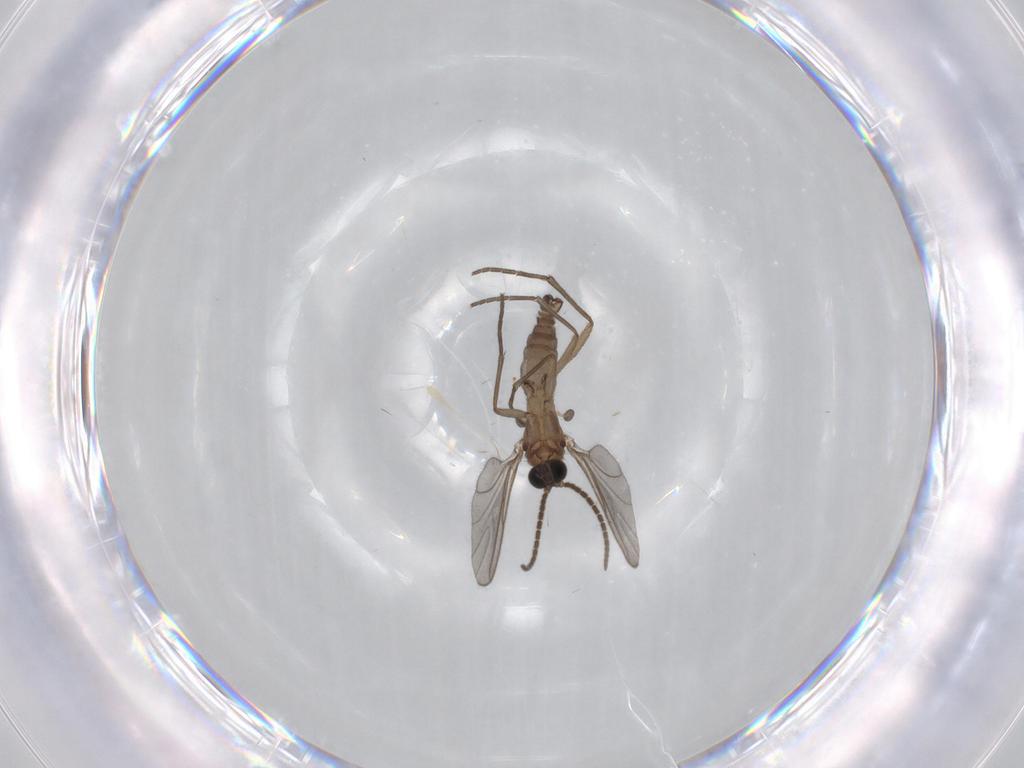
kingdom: Animalia
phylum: Arthropoda
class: Insecta
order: Diptera
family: Sciaridae
